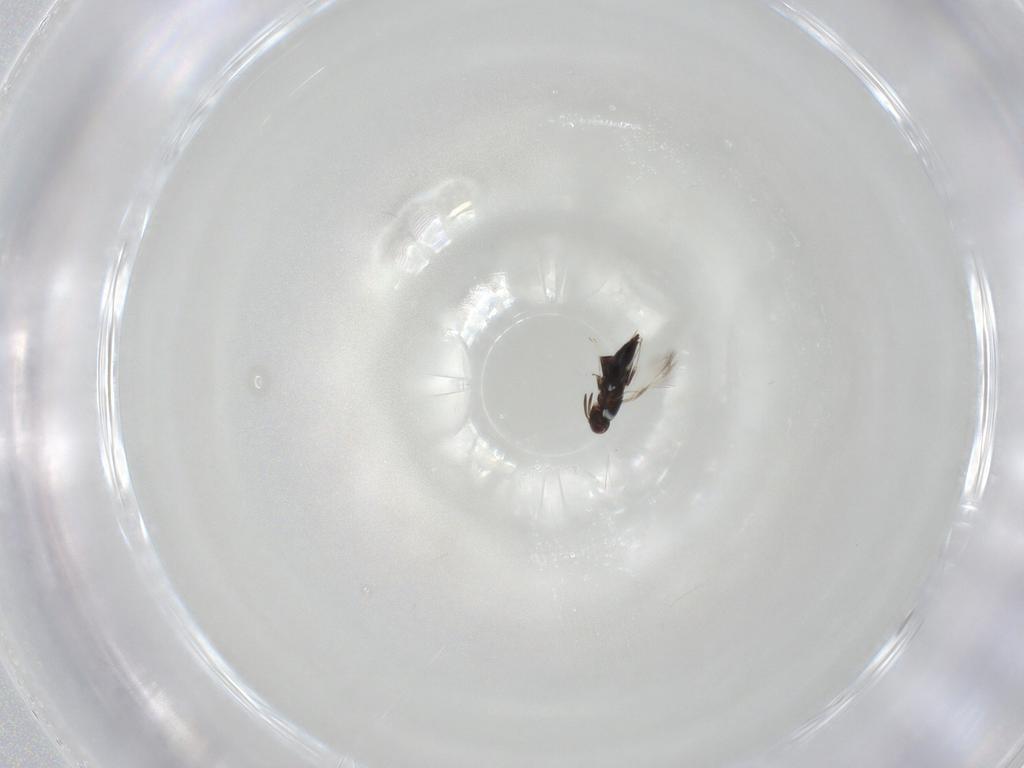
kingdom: Animalia
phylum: Arthropoda
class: Insecta
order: Hymenoptera
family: Signiphoridae
